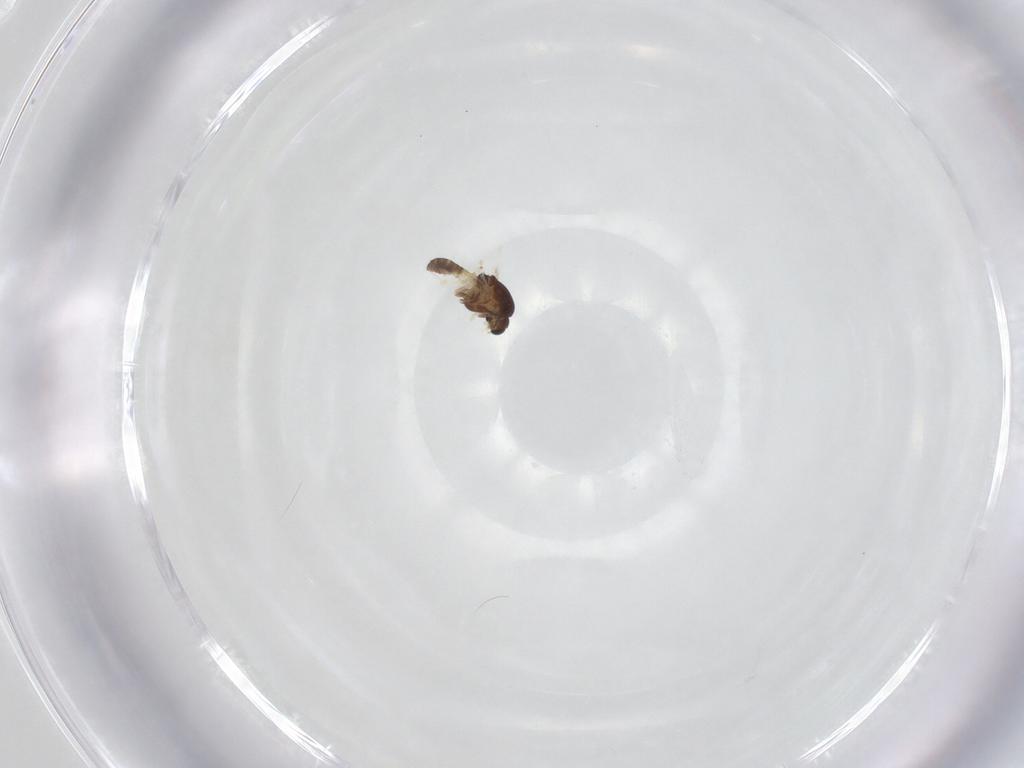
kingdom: Animalia
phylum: Arthropoda
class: Insecta
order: Diptera
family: Chironomidae
